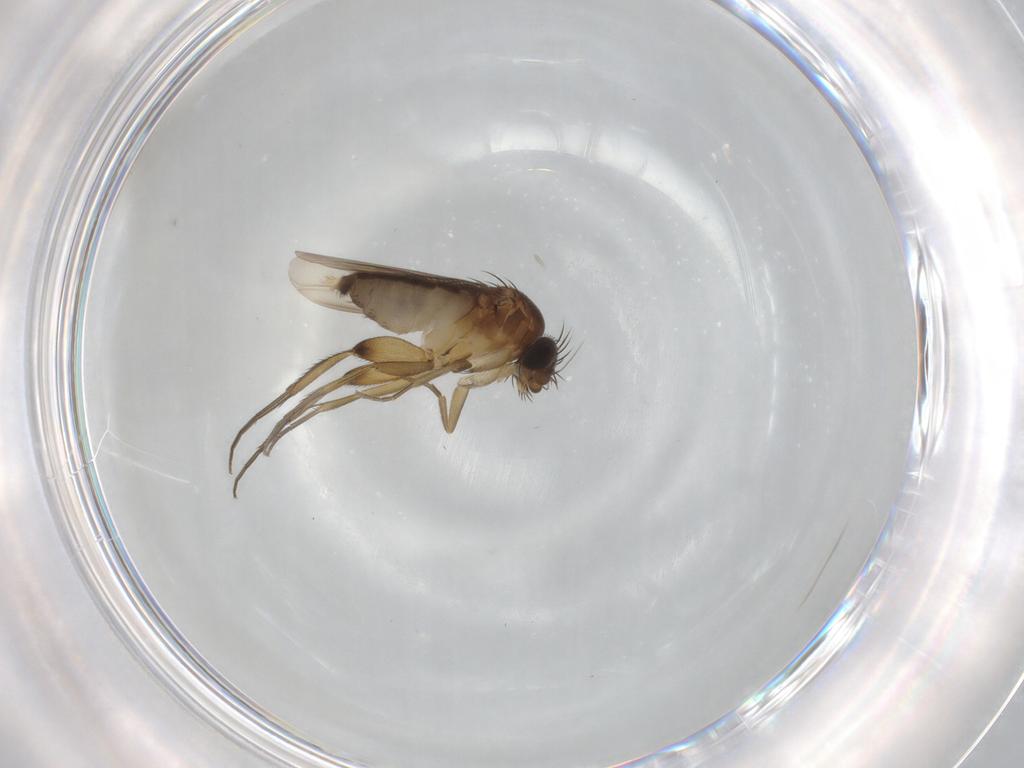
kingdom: Animalia
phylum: Arthropoda
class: Insecta
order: Diptera
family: Phoridae
